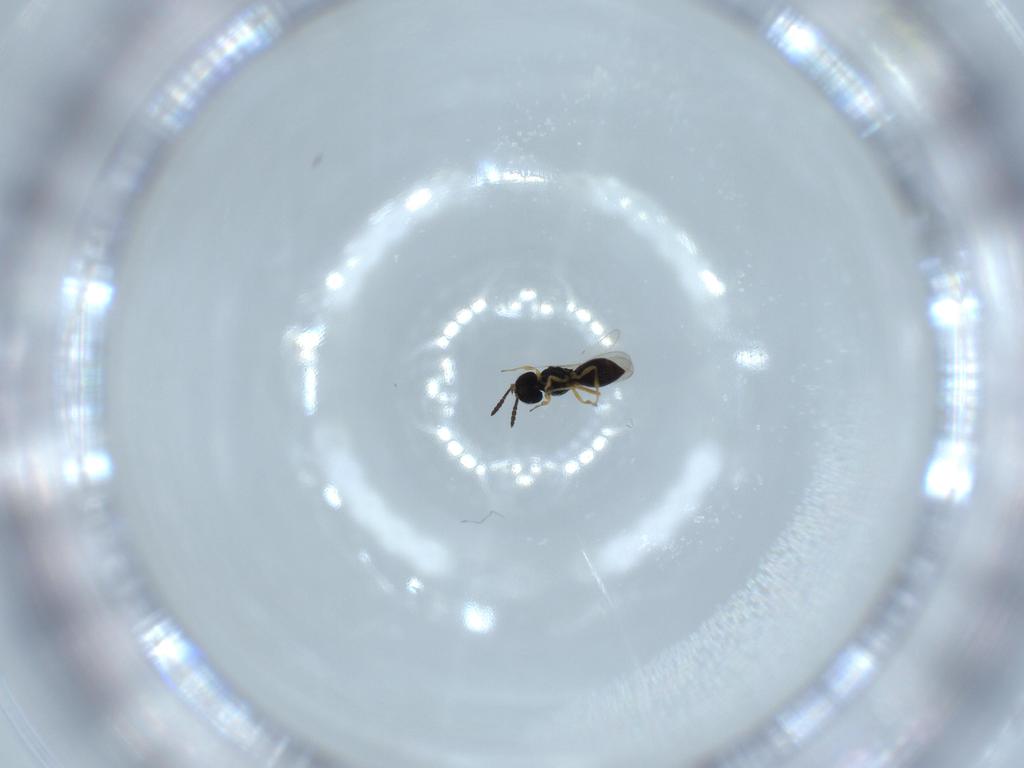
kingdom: Animalia
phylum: Arthropoda
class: Insecta
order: Hymenoptera
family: Scelionidae
